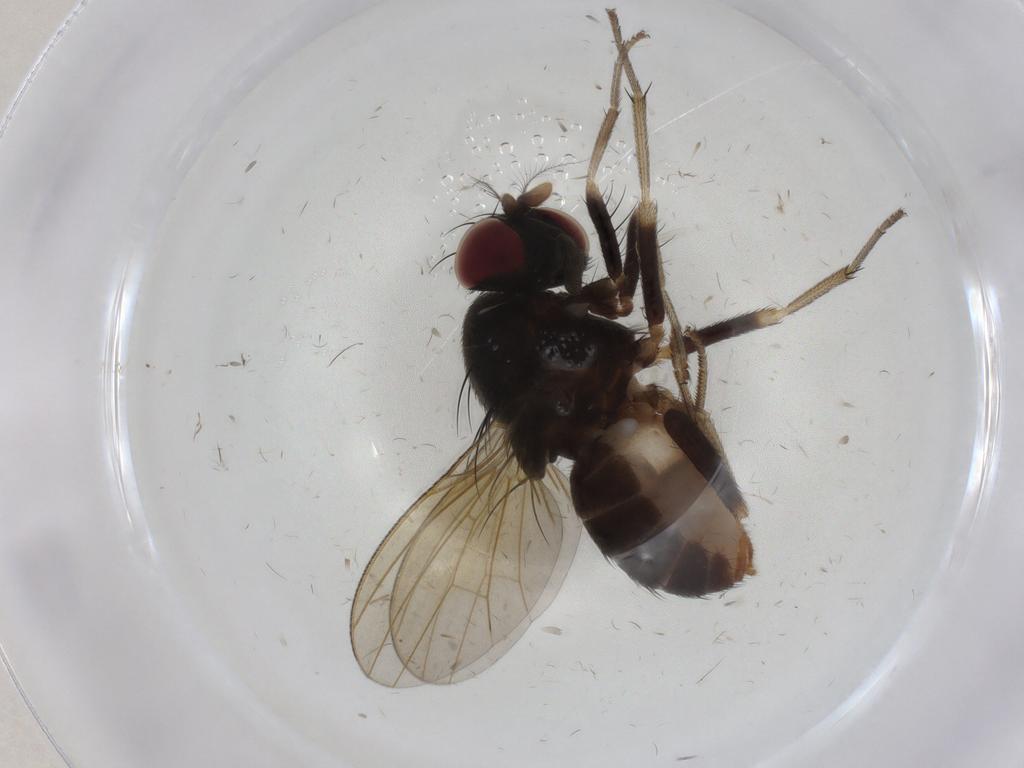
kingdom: Animalia
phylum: Arthropoda
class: Insecta
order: Diptera
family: Lauxaniidae
